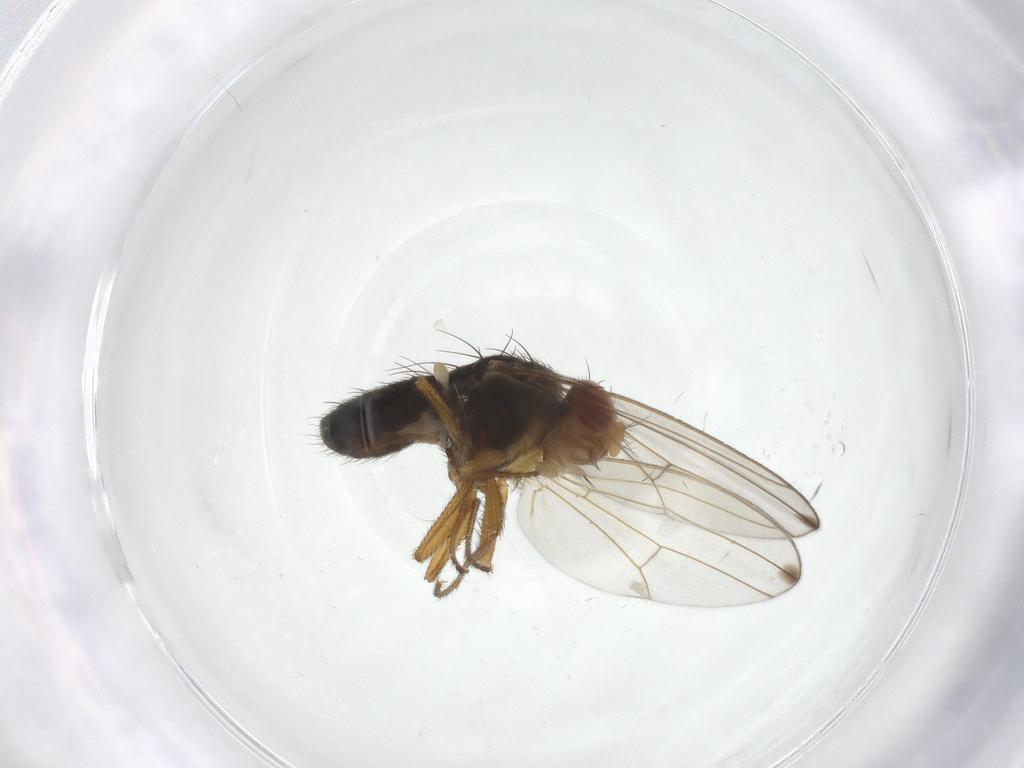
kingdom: Animalia
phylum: Arthropoda
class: Insecta
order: Diptera
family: Drosophilidae
